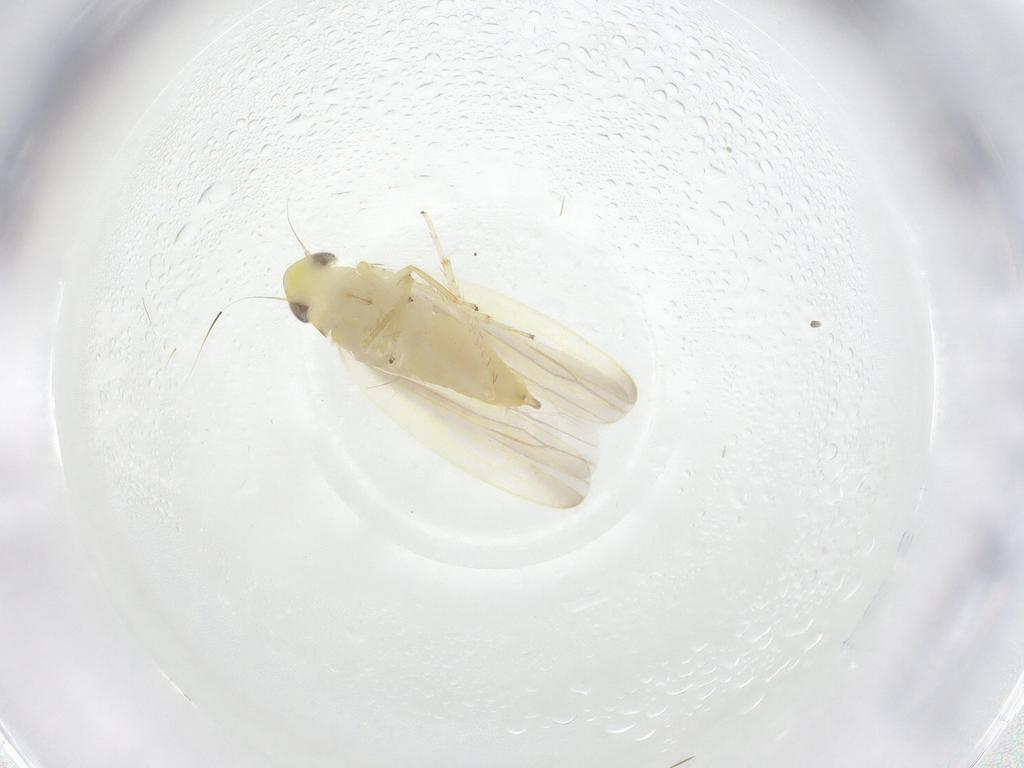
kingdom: Animalia
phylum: Arthropoda
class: Insecta
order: Hemiptera
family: Cicadellidae
